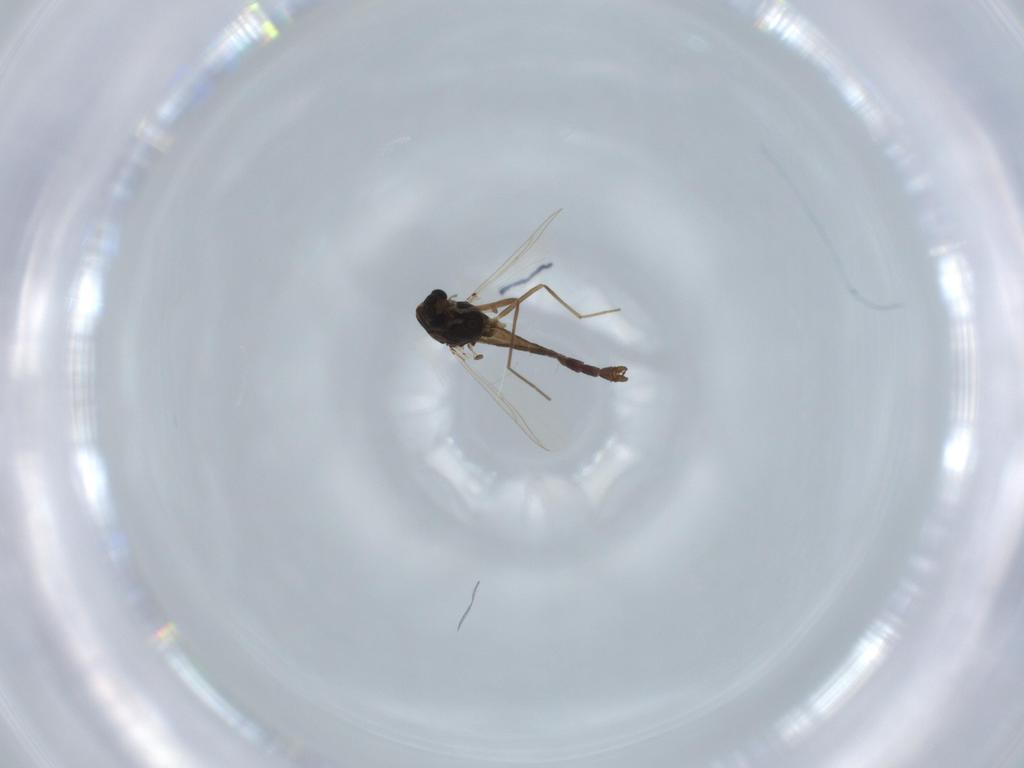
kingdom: Animalia
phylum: Arthropoda
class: Insecta
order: Diptera
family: Chironomidae
